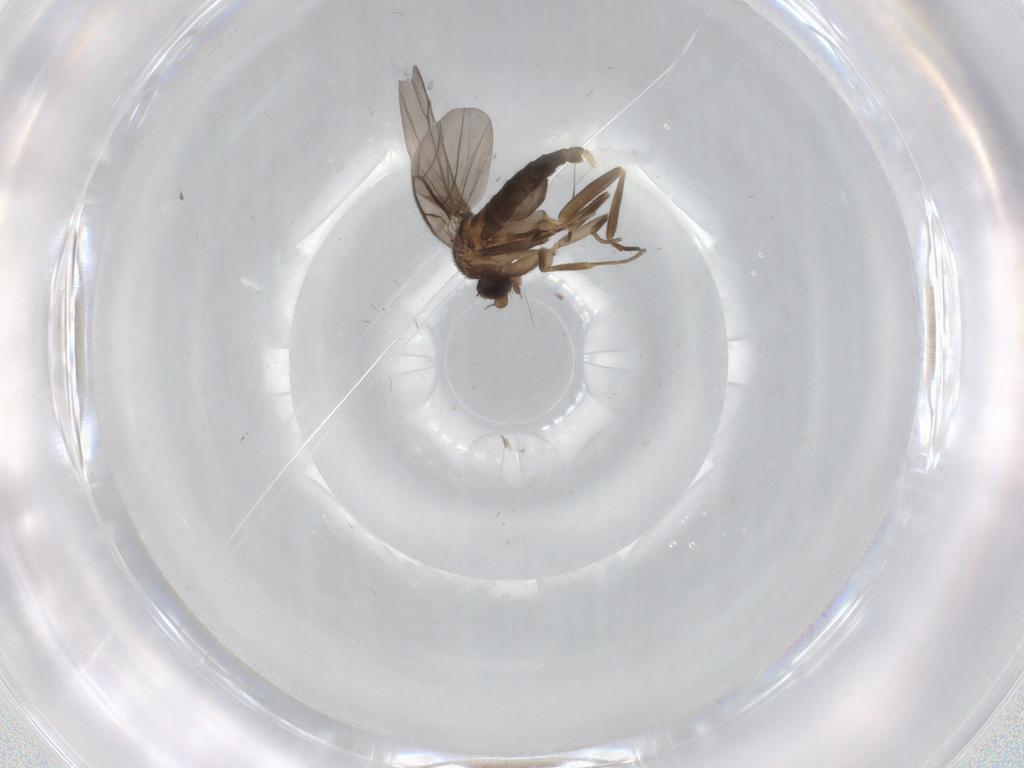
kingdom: Animalia
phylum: Arthropoda
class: Insecta
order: Diptera
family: Phoridae
